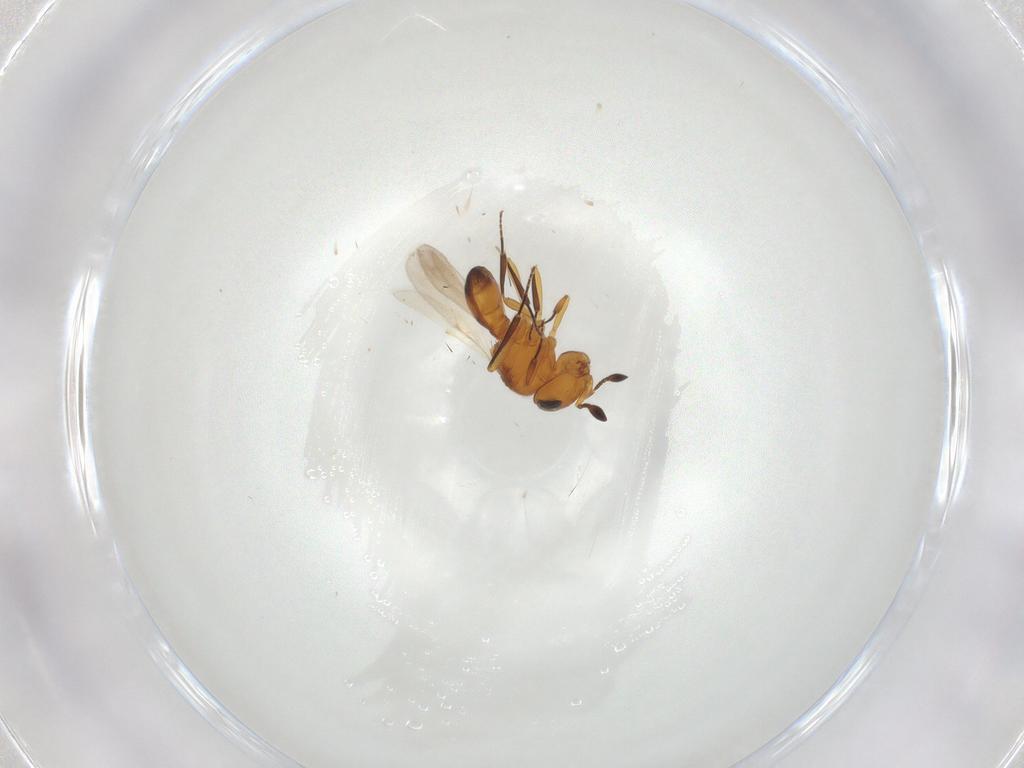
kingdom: Animalia
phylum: Arthropoda
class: Insecta
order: Hymenoptera
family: Scelionidae
